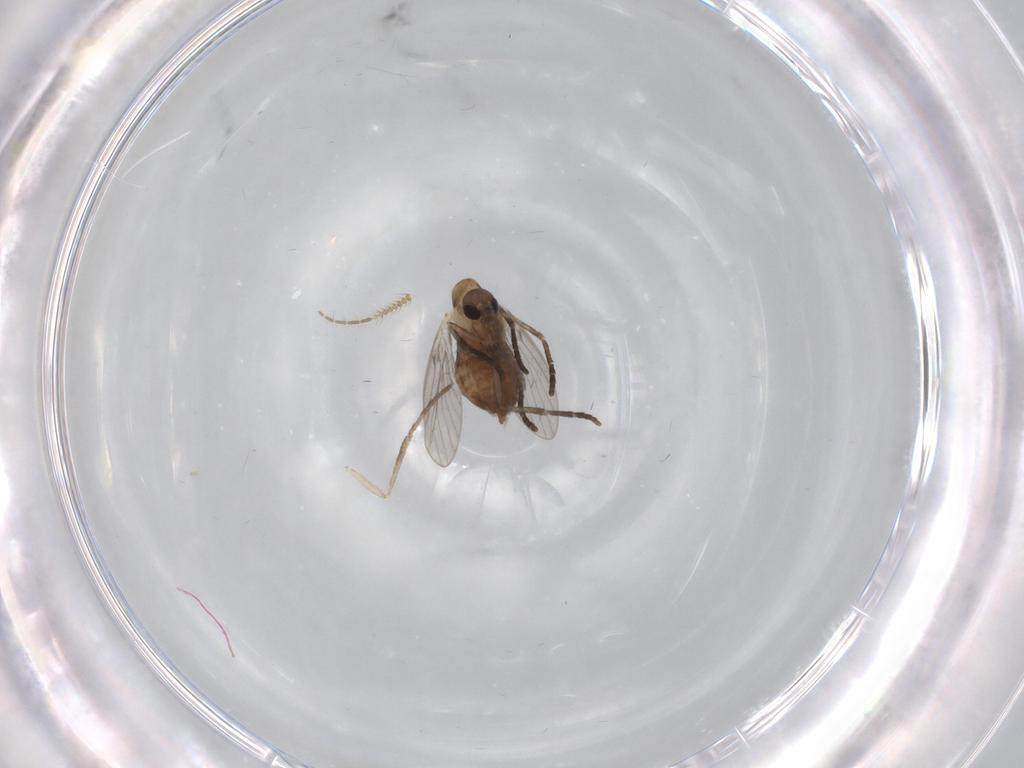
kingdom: Animalia
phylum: Arthropoda
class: Insecta
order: Diptera
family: Ceratopogonidae
